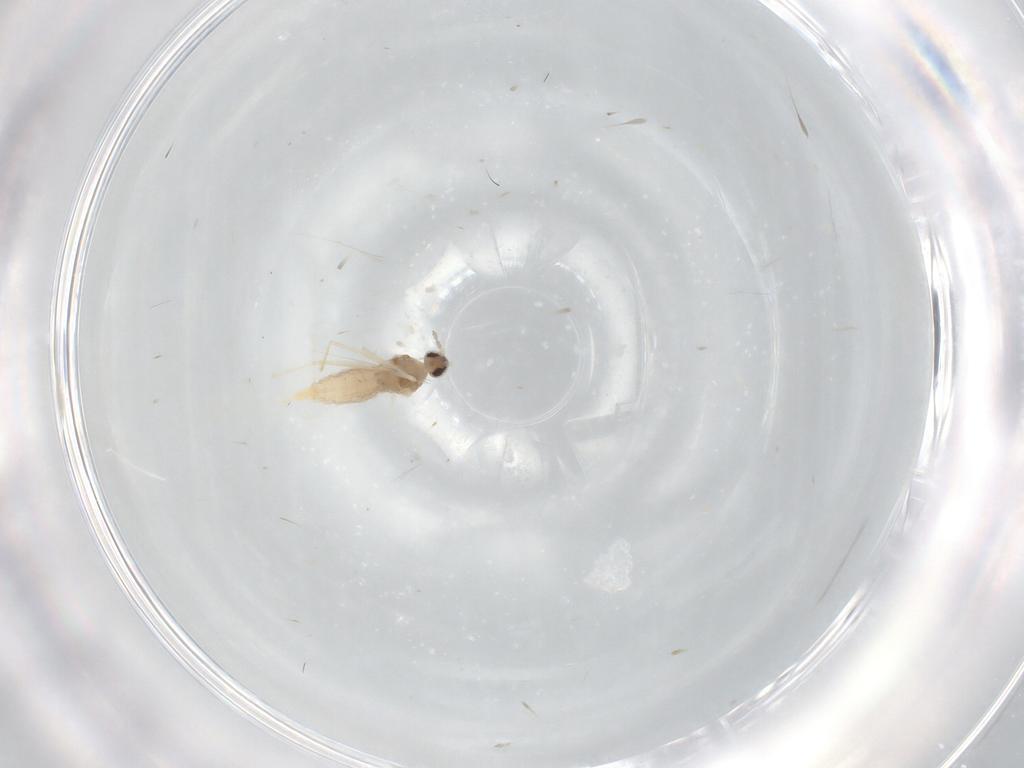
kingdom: Animalia
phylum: Arthropoda
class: Insecta
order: Diptera
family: Cecidomyiidae
